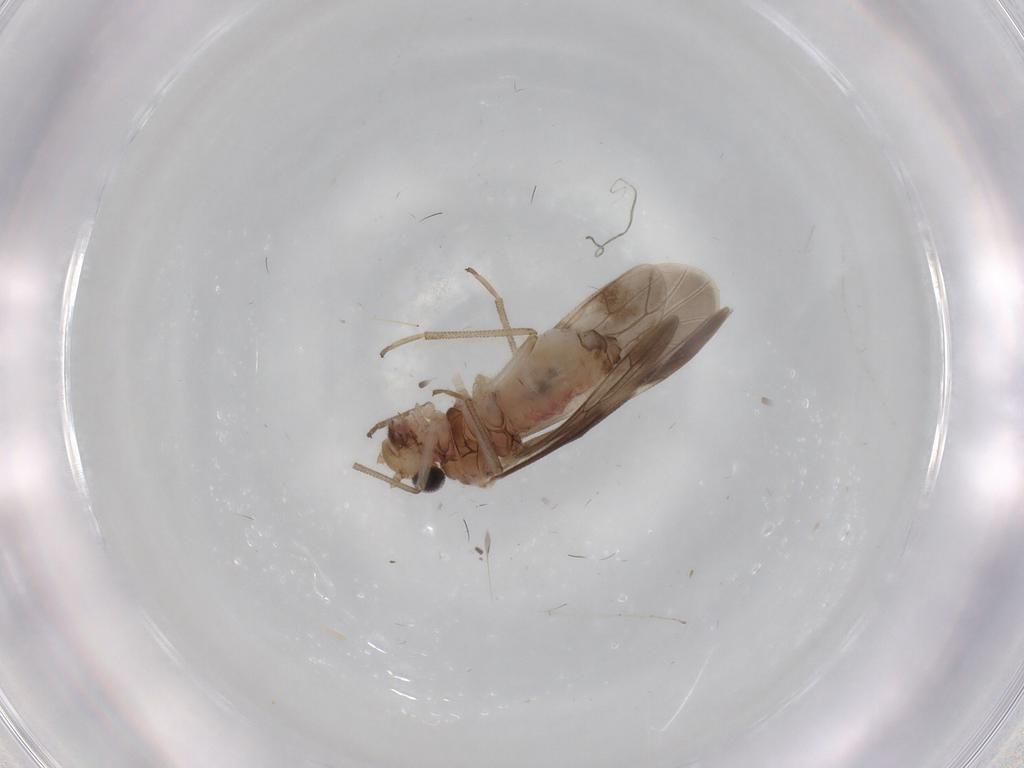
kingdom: Animalia
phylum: Arthropoda
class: Insecta
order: Psocodea
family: Caeciliusidae
